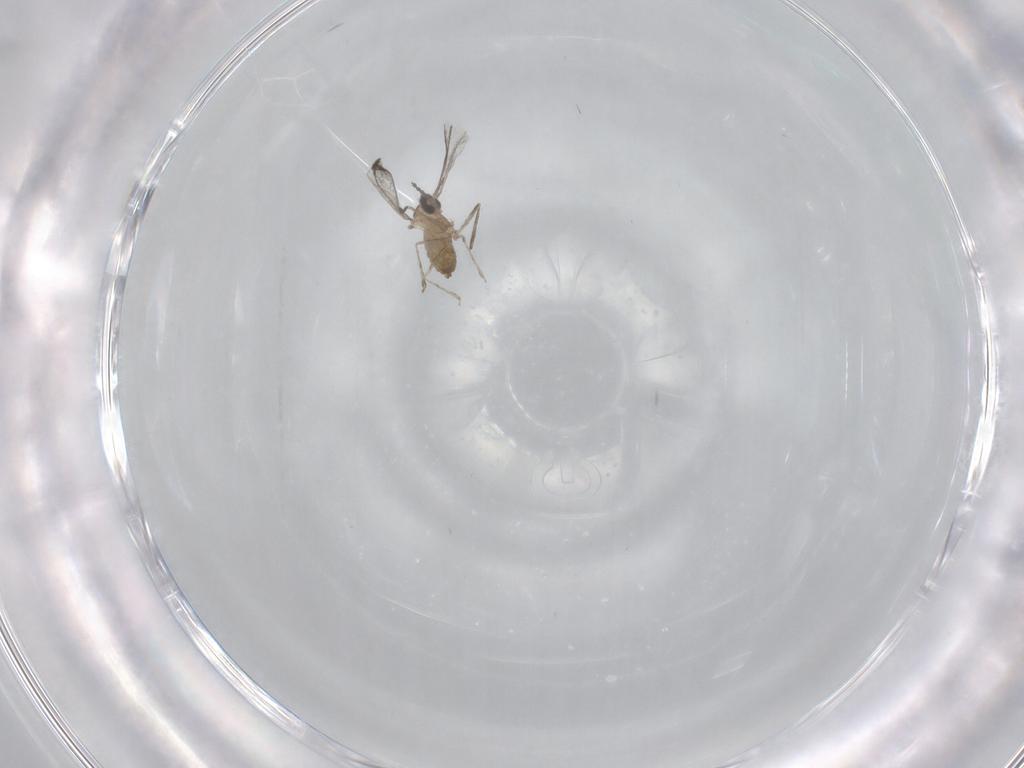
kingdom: Animalia
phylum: Arthropoda
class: Insecta
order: Diptera
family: Cecidomyiidae
